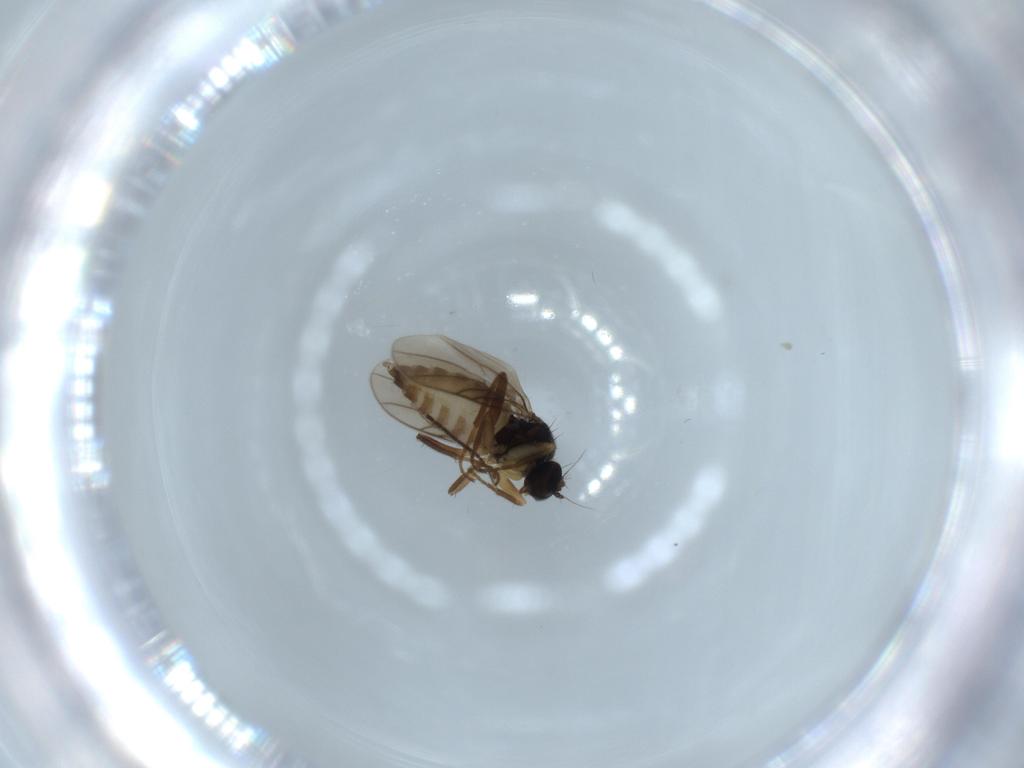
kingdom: Animalia
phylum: Arthropoda
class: Insecta
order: Diptera
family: Hybotidae
